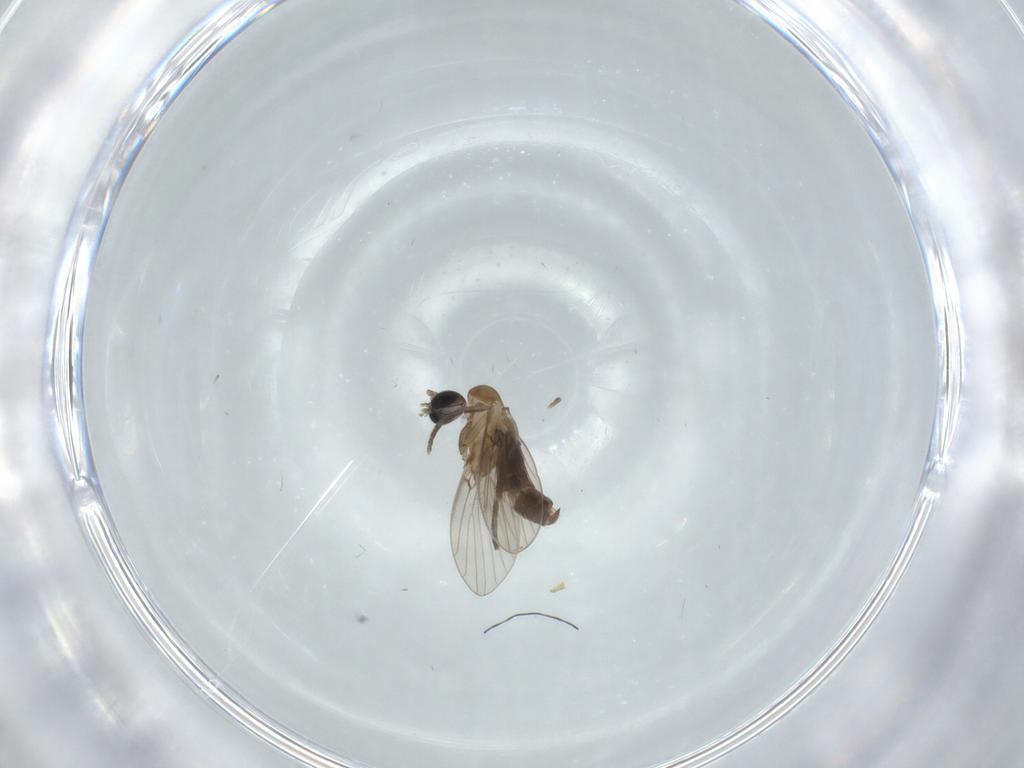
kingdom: Animalia
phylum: Arthropoda
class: Insecta
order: Diptera
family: Psychodidae
